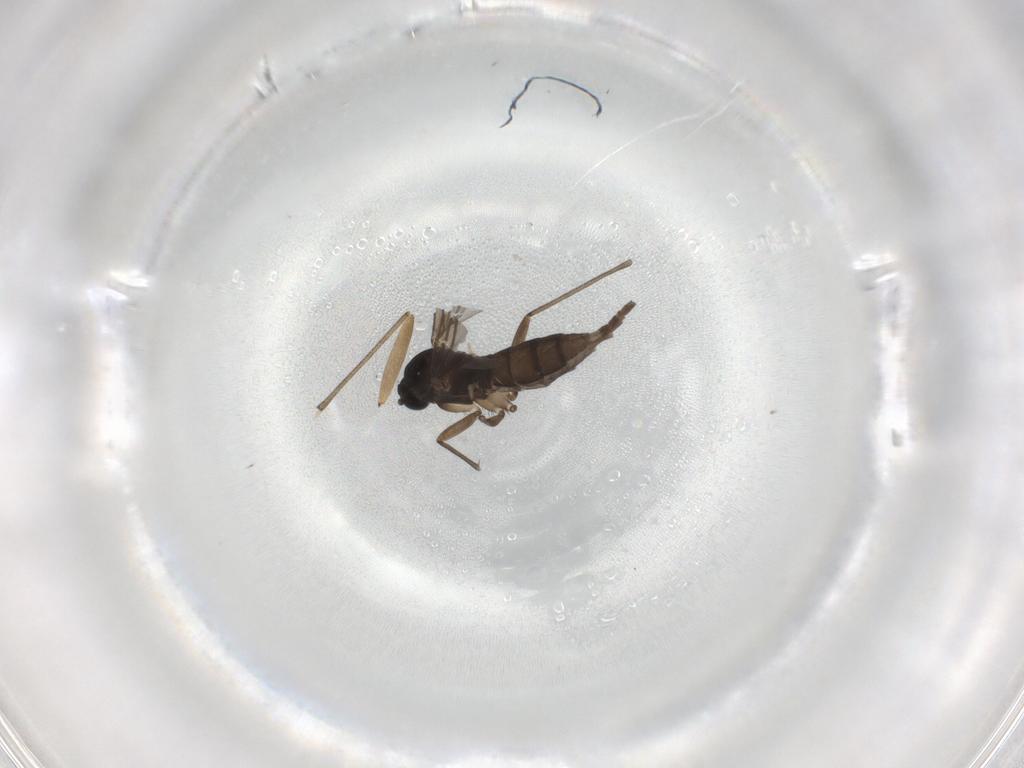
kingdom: Animalia
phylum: Arthropoda
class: Insecta
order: Diptera
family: Sciaridae
